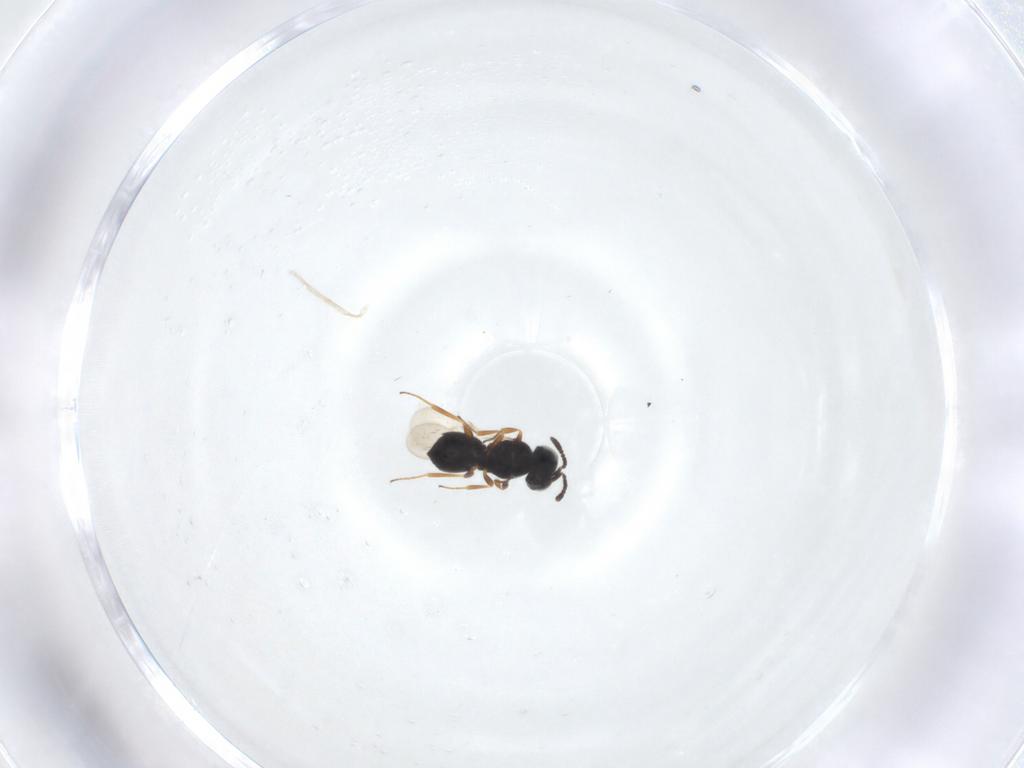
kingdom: Animalia
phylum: Arthropoda
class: Insecta
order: Hymenoptera
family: Scelionidae
